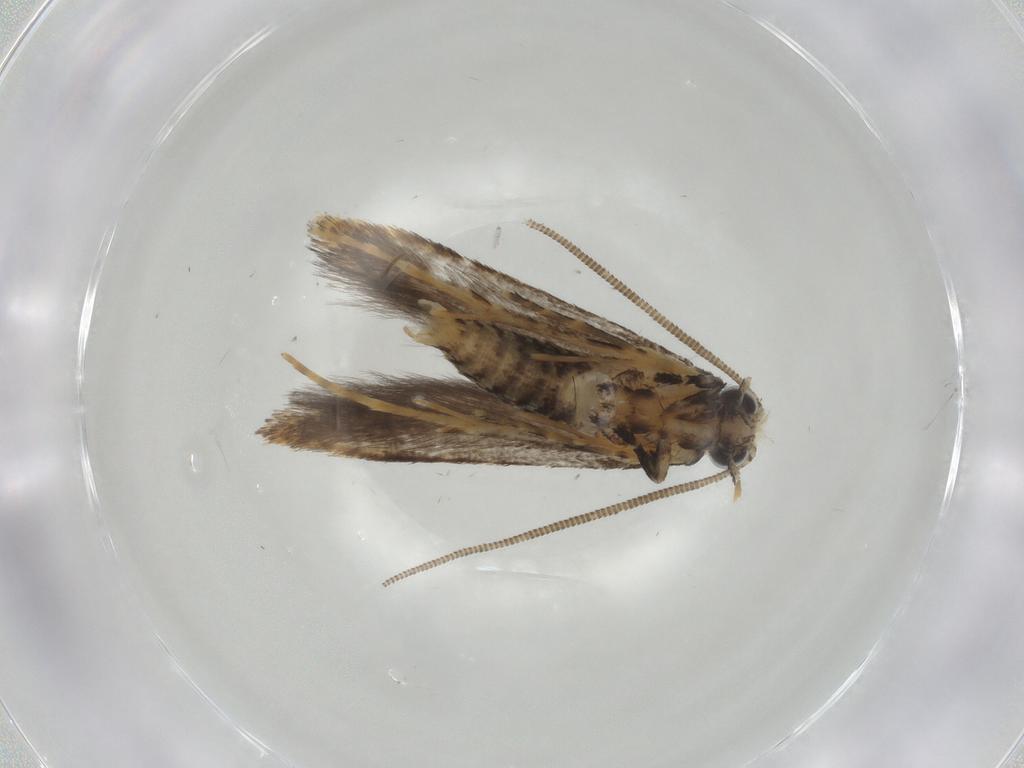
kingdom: Animalia
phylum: Arthropoda
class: Insecta
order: Lepidoptera
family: Tineidae
